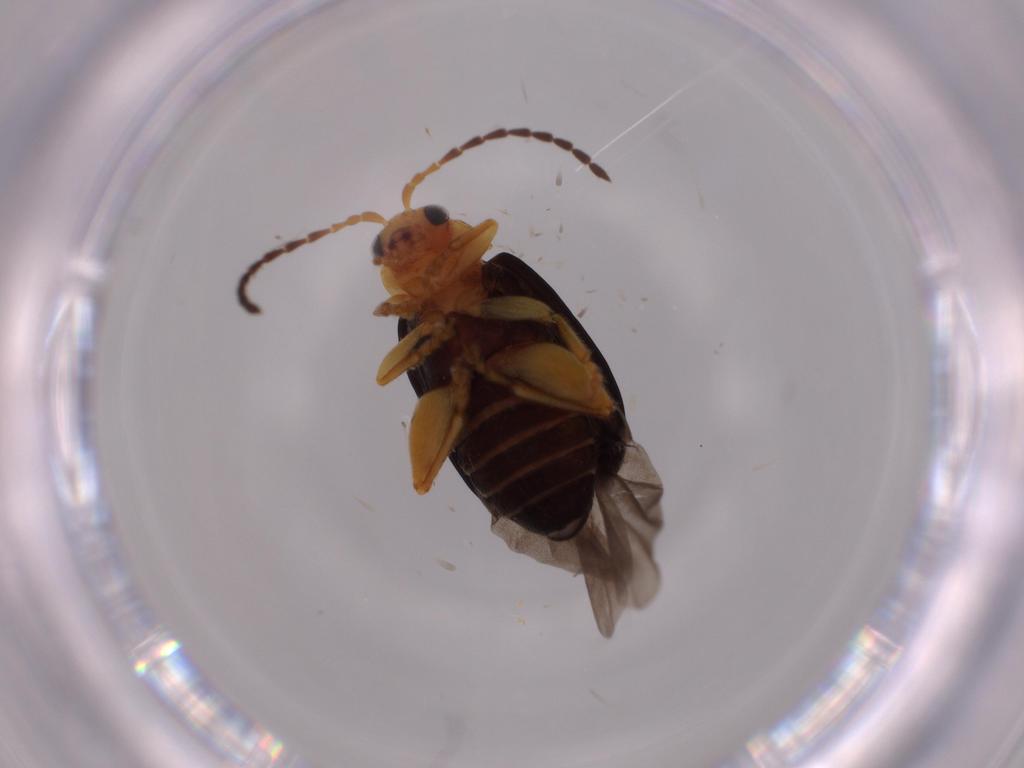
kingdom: Animalia
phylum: Arthropoda
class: Insecta
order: Coleoptera
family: Chrysomelidae
